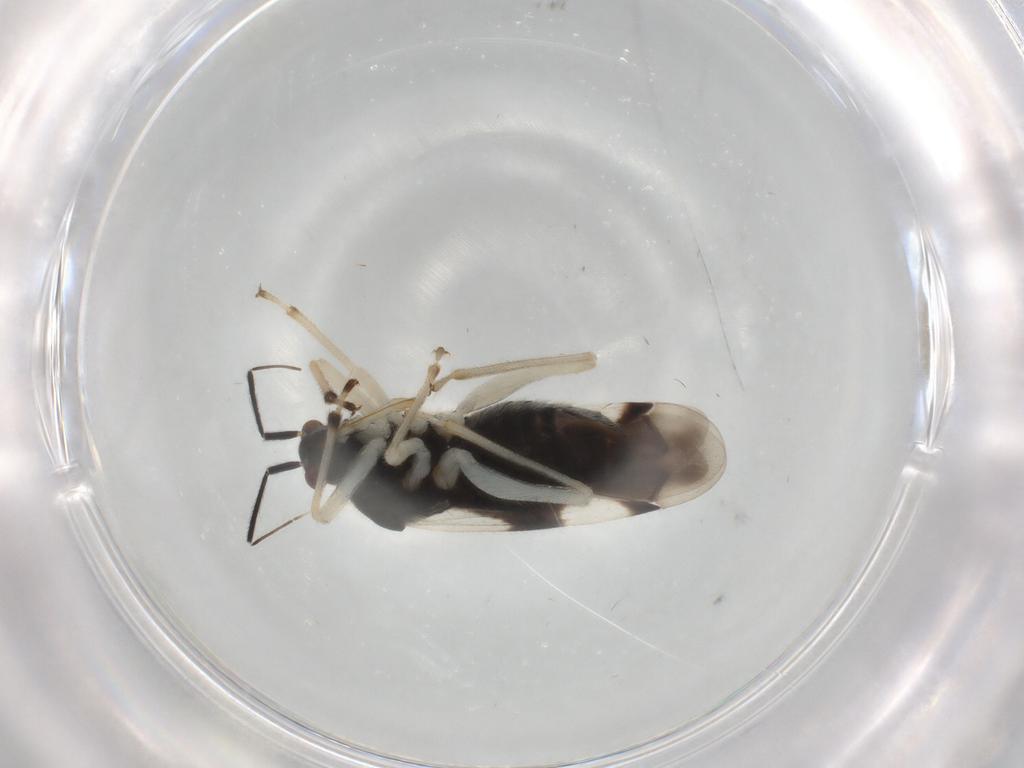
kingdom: Animalia
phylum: Arthropoda
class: Insecta
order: Hemiptera
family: Miridae
